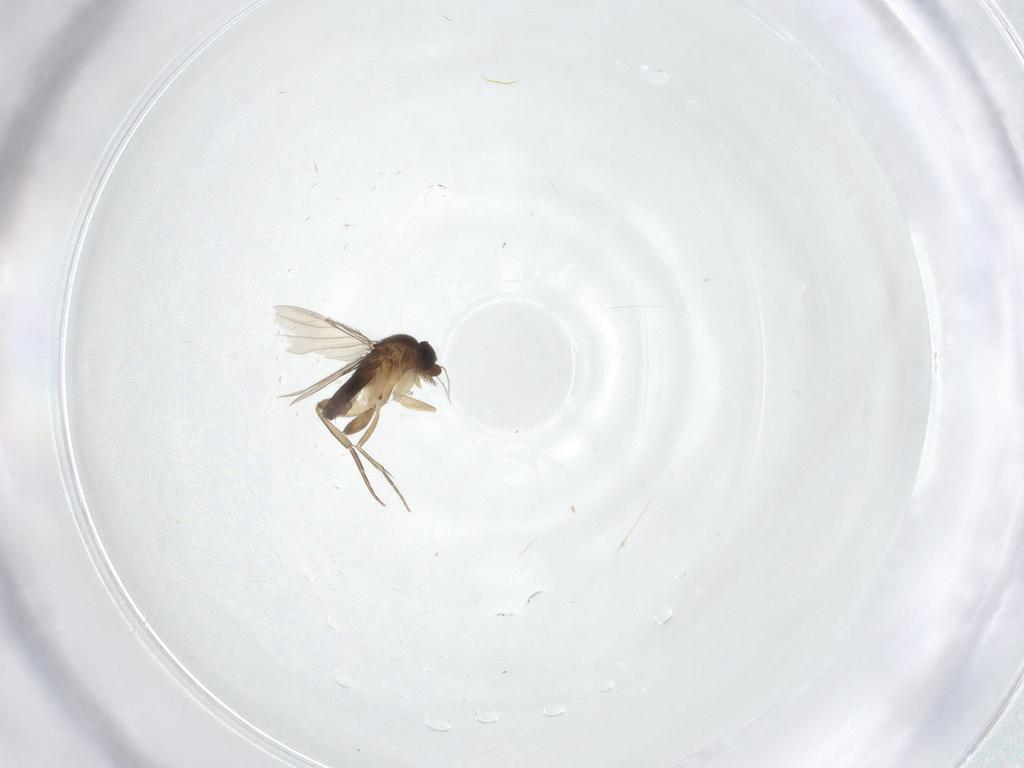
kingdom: Animalia
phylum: Arthropoda
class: Insecta
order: Diptera
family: Phoridae
